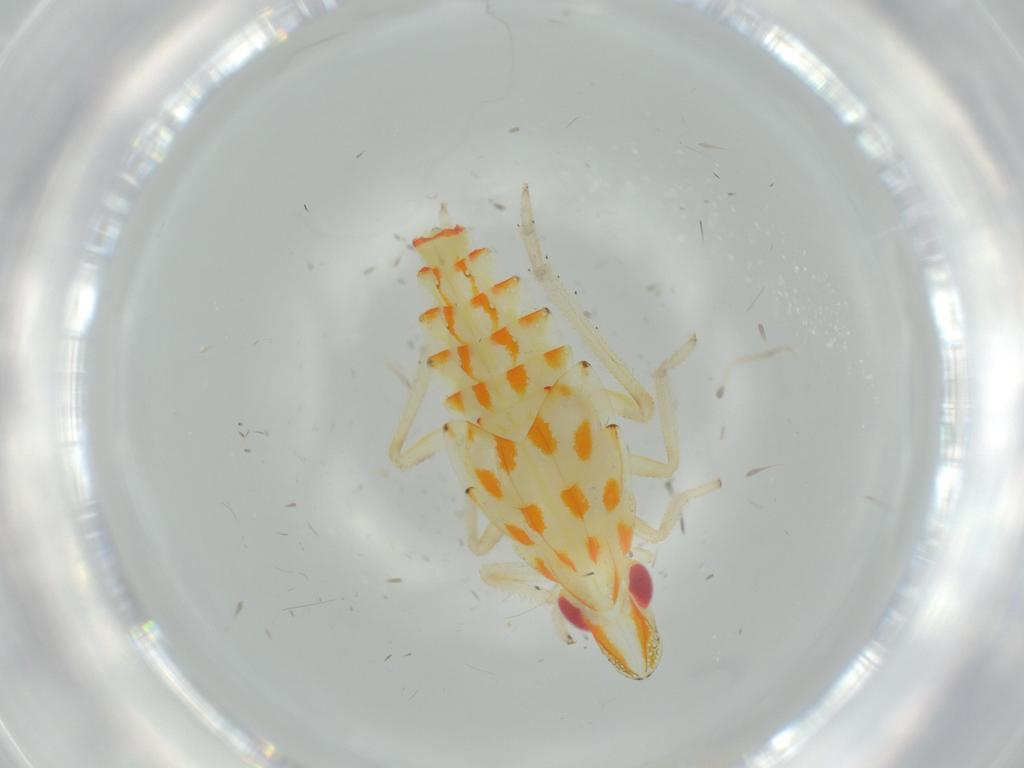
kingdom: Animalia
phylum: Arthropoda
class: Insecta
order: Hemiptera
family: Tropiduchidae
